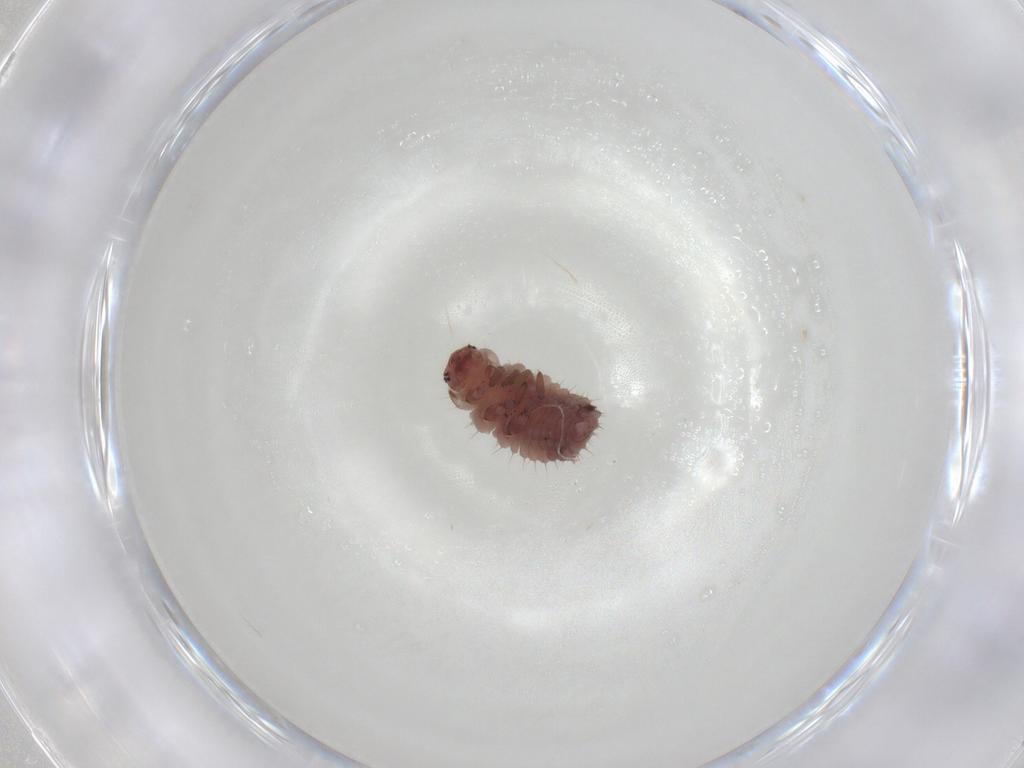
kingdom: Animalia
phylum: Arthropoda
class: Insecta
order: Coleoptera
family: Coccinellidae
